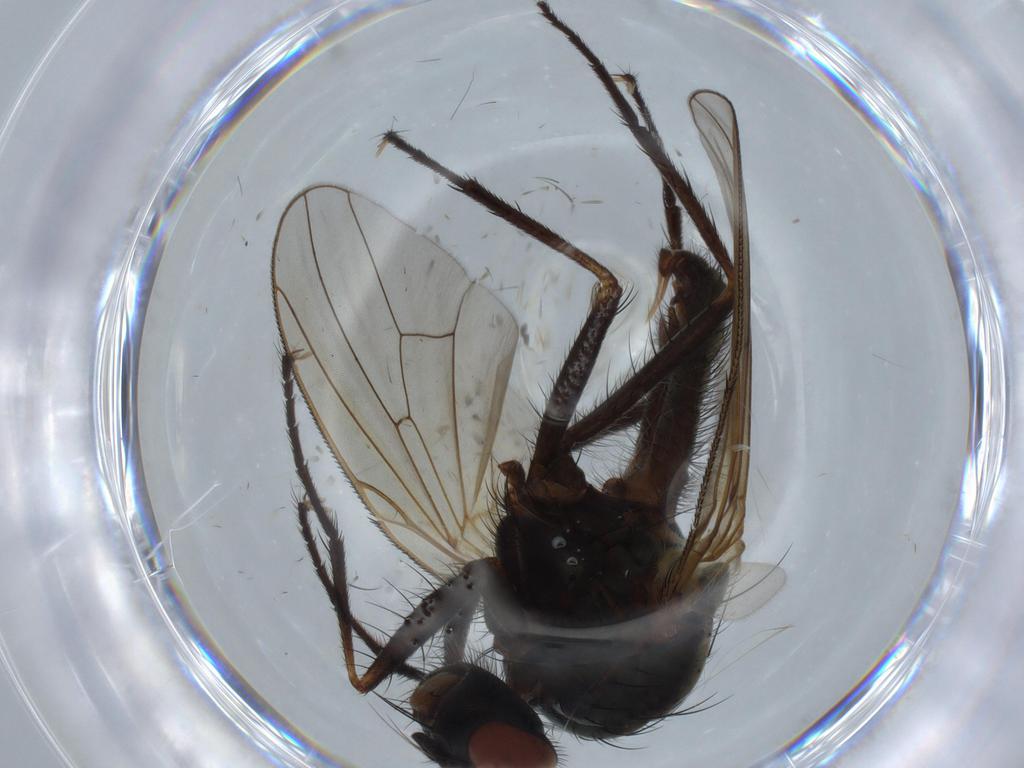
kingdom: Animalia
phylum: Arthropoda
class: Insecta
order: Diptera
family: Anthomyiidae
